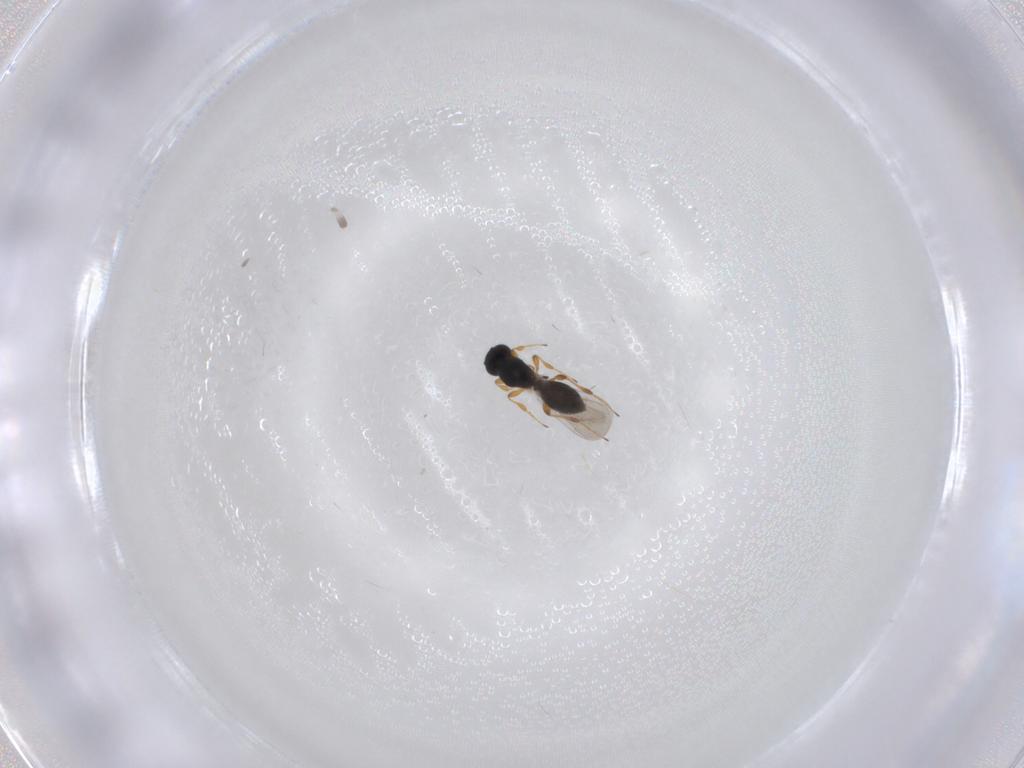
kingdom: Animalia
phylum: Arthropoda
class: Insecta
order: Hymenoptera
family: Platygastridae
